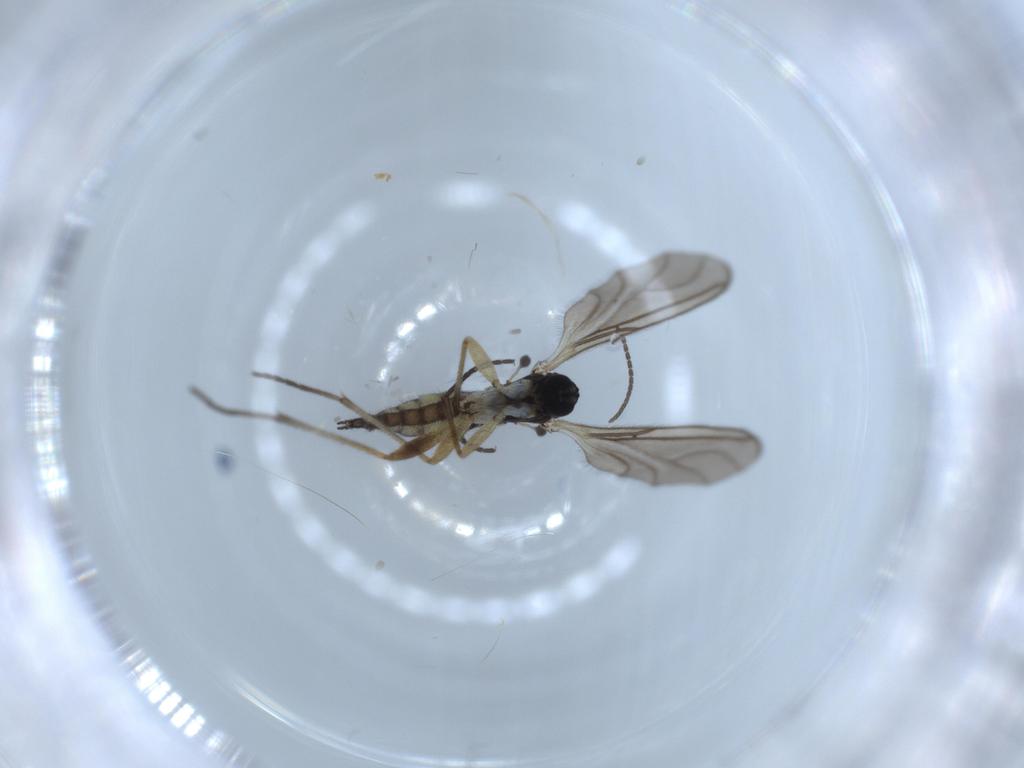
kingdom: Animalia
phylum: Arthropoda
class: Insecta
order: Diptera
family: Sciaridae
